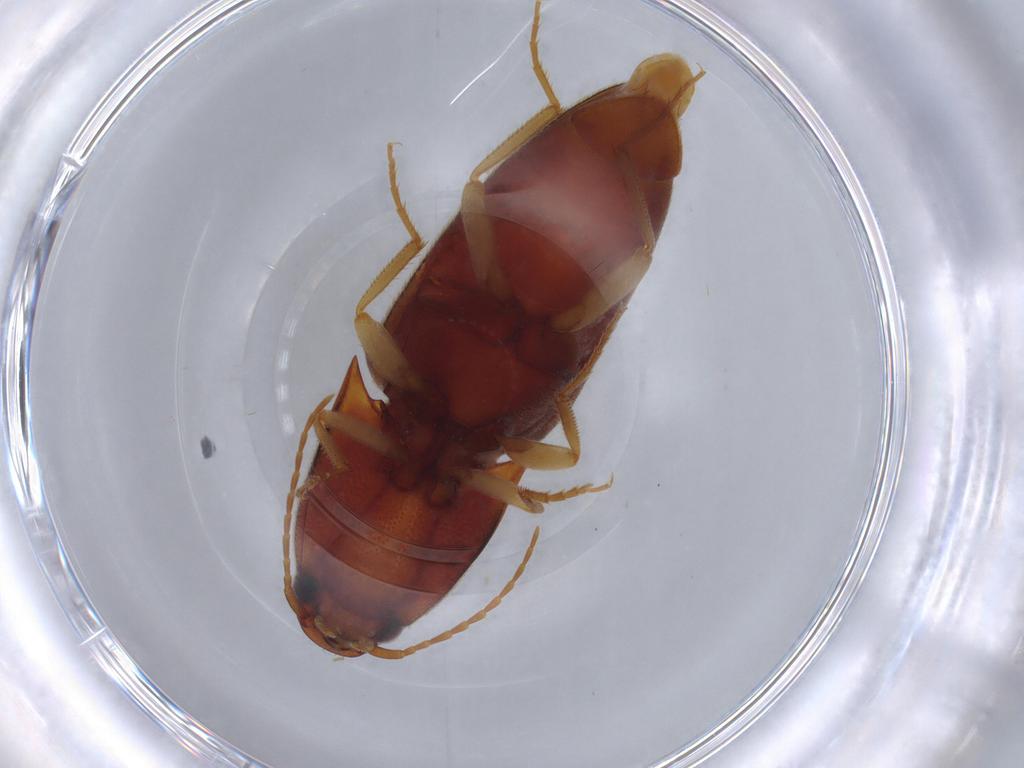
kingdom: Animalia
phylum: Arthropoda
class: Insecta
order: Coleoptera
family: Elateridae
